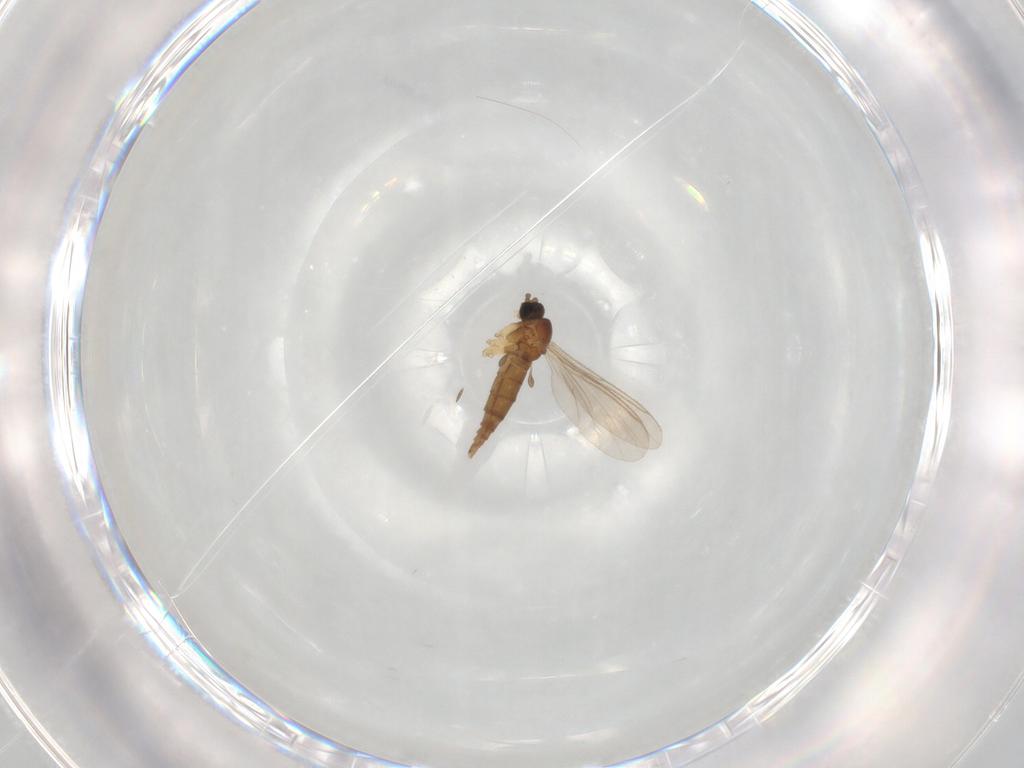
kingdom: Animalia
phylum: Arthropoda
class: Insecta
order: Diptera
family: Sciaridae
